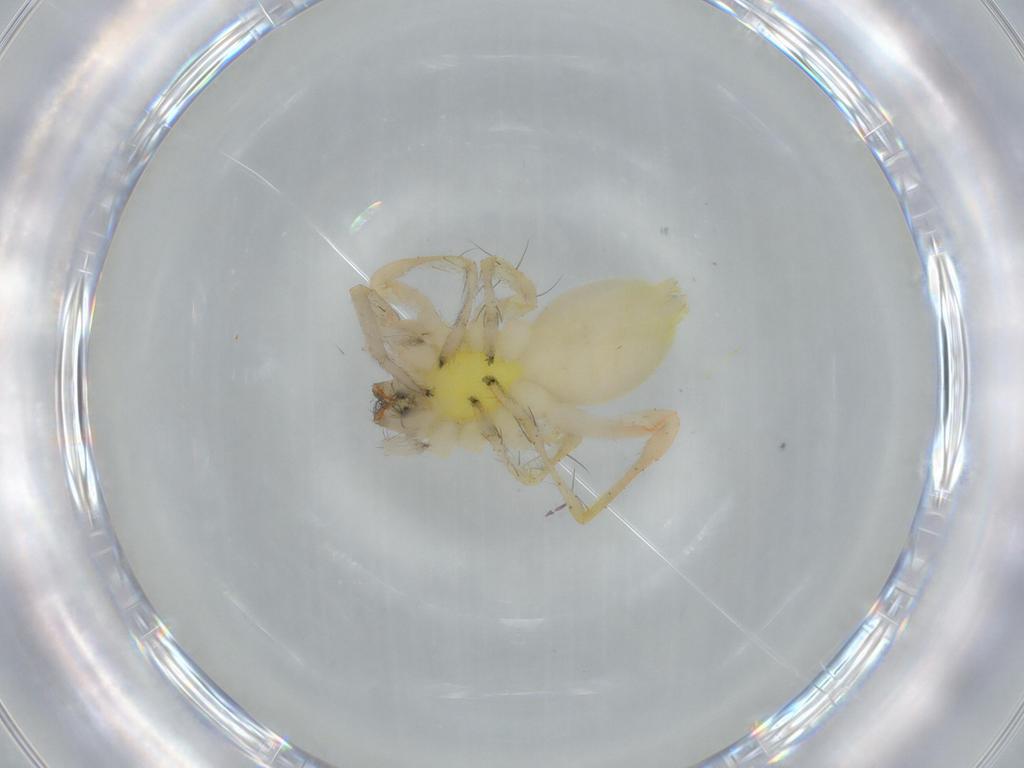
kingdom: Animalia
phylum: Arthropoda
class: Arachnida
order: Araneae
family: Anyphaenidae
